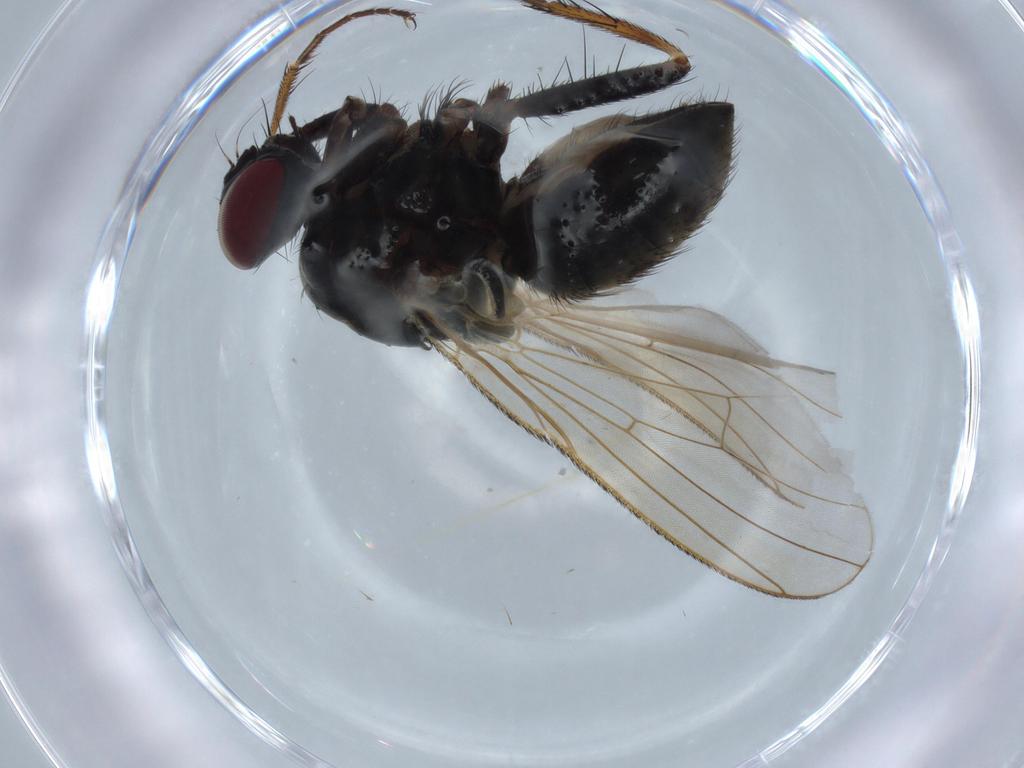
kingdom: Animalia
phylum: Arthropoda
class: Insecta
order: Diptera
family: Muscidae
